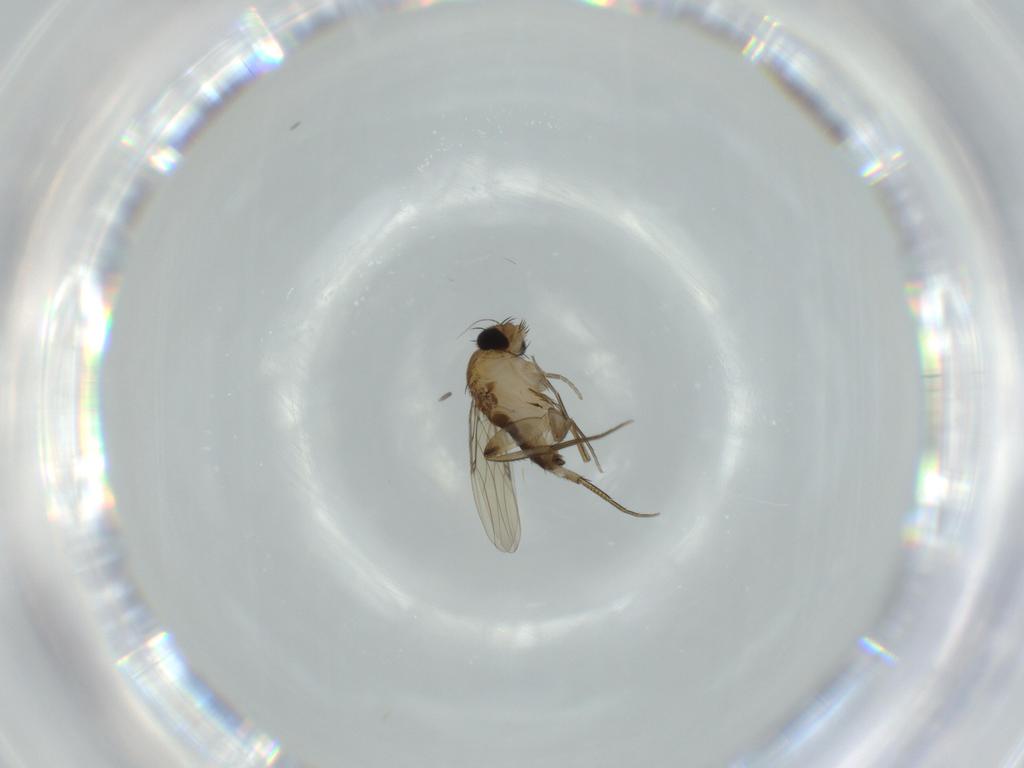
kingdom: Animalia
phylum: Arthropoda
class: Insecta
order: Diptera
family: Phoridae
